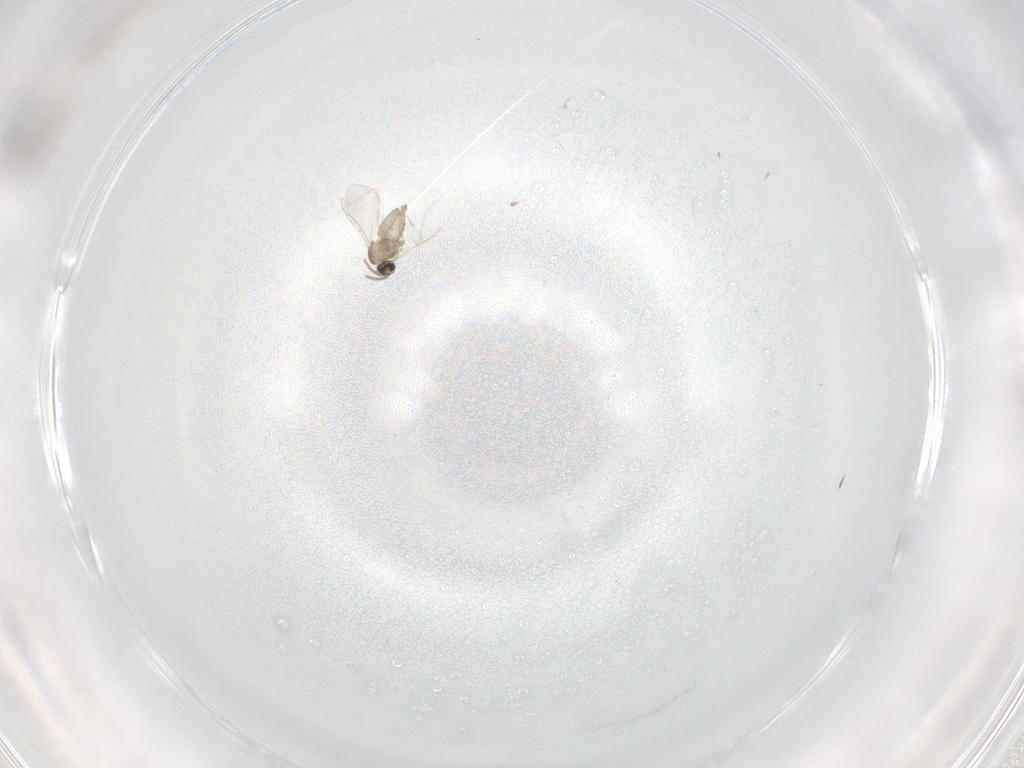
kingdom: Animalia
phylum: Arthropoda
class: Insecta
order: Diptera
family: Cecidomyiidae
